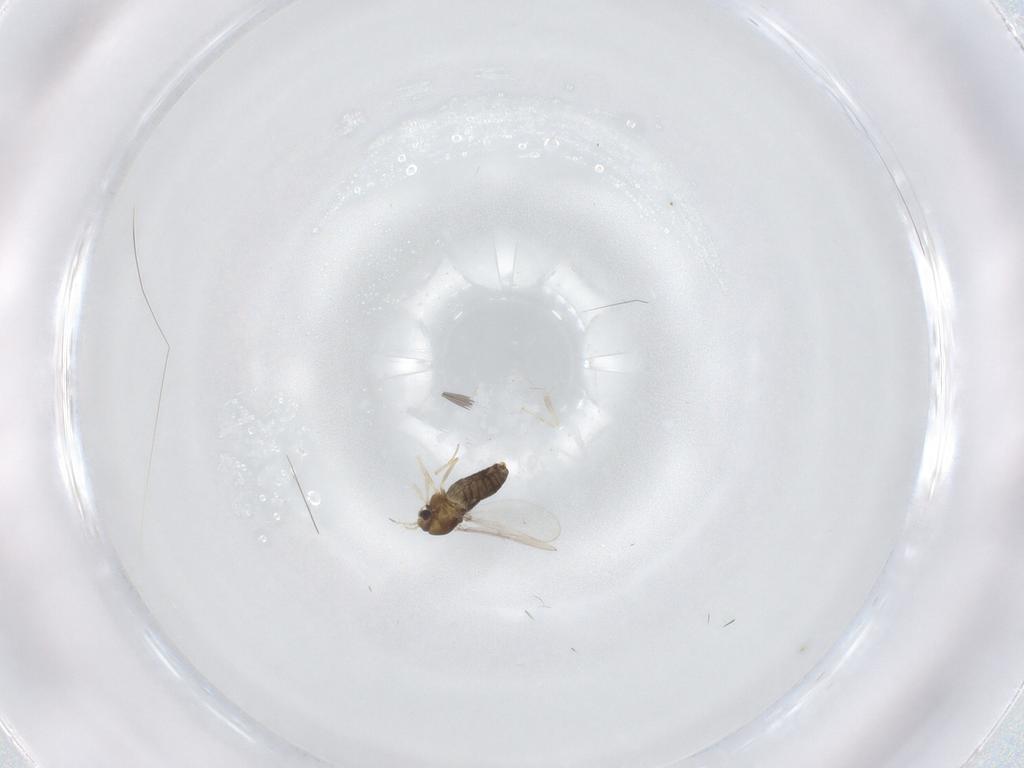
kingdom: Animalia
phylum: Arthropoda
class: Insecta
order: Diptera
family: Chironomidae
